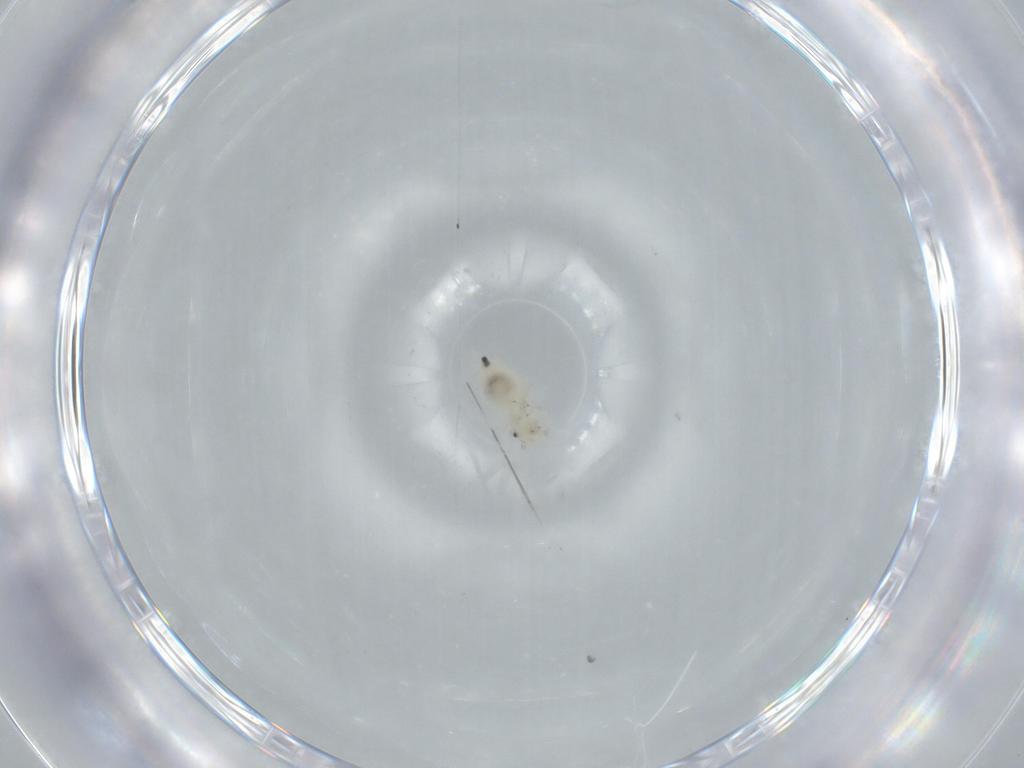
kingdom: Animalia
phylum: Arthropoda
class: Insecta
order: Psocodea
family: Caeciliusidae
